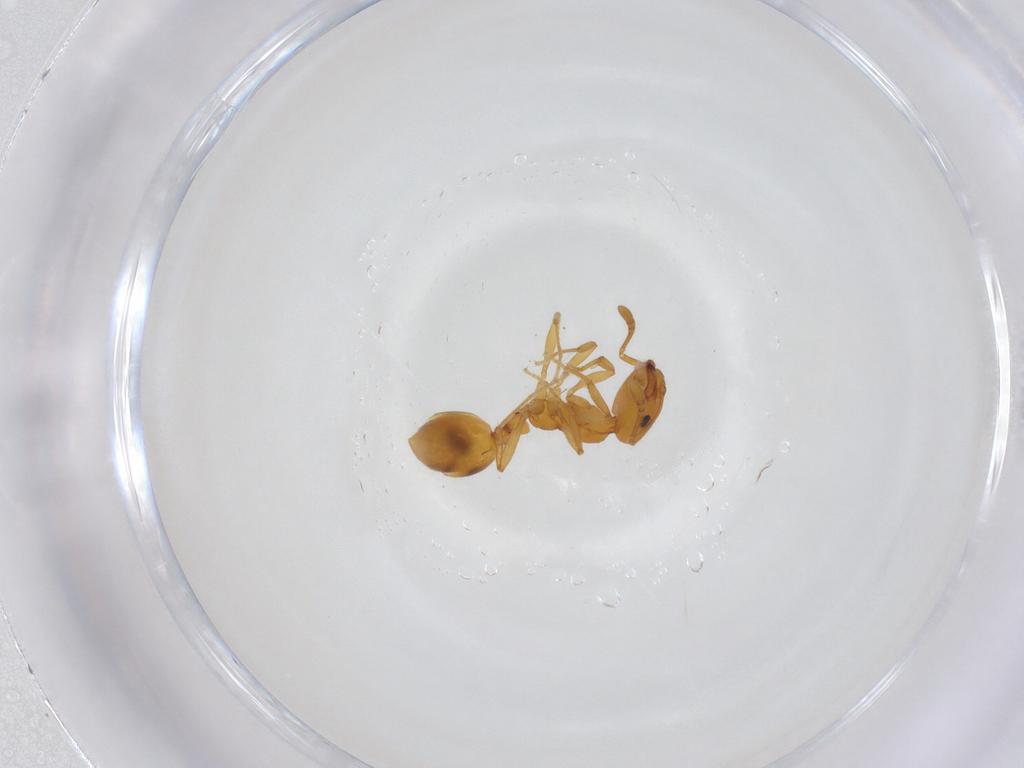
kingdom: Animalia
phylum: Arthropoda
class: Insecta
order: Hymenoptera
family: Formicidae
